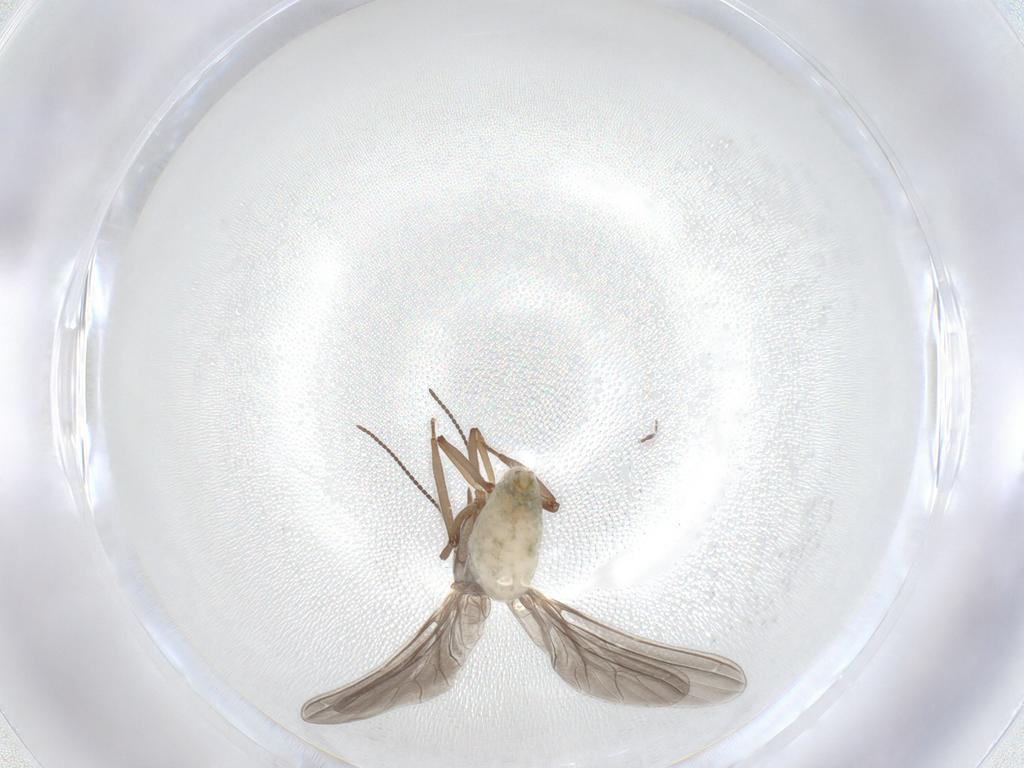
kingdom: Animalia
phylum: Arthropoda
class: Insecta
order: Neuroptera
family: Coniopterygidae
